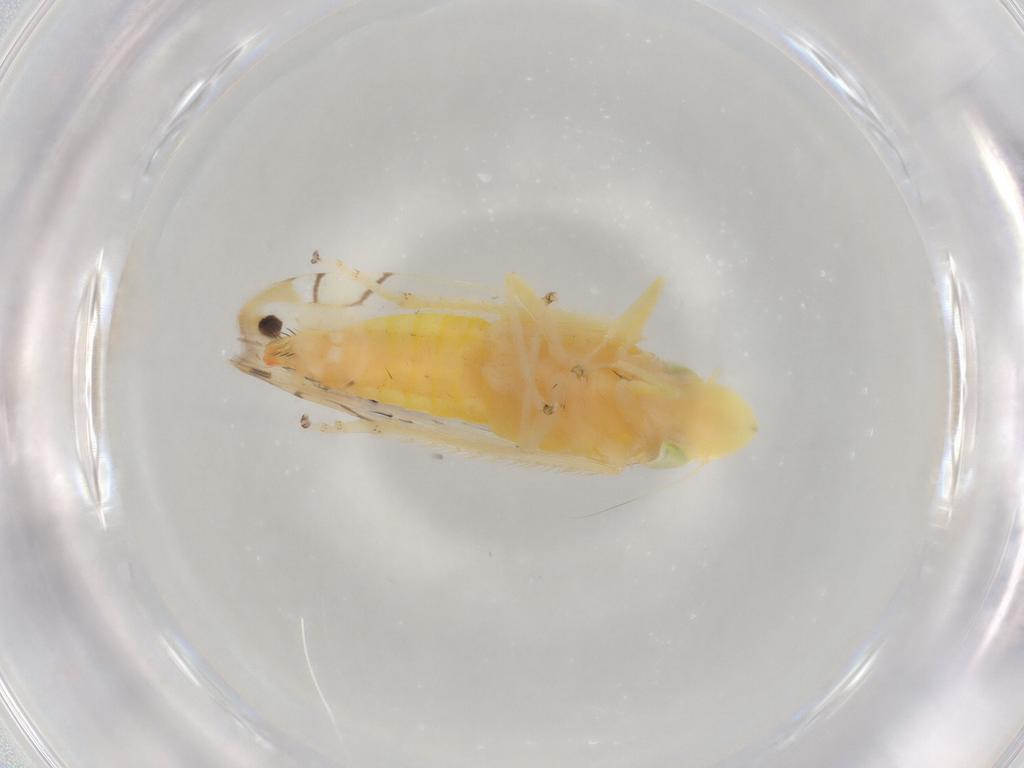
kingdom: Animalia
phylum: Arthropoda
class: Insecta
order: Hemiptera
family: Cicadellidae
